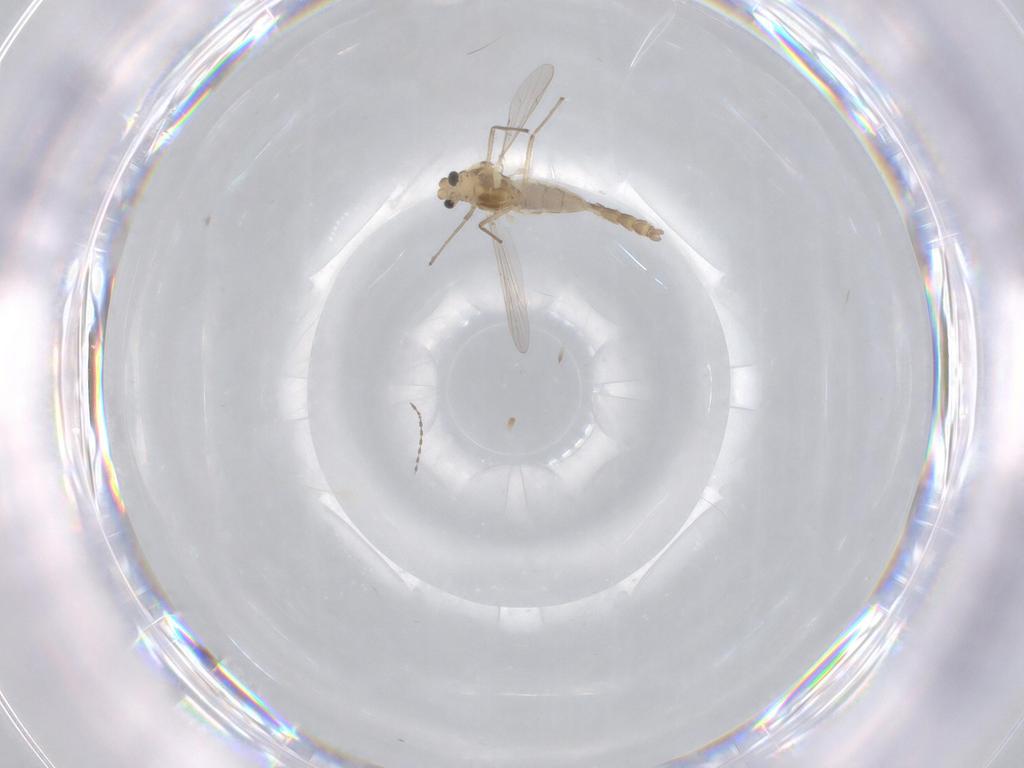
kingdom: Animalia
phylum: Arthropoda
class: Insecta
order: Diptera
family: Chironomidae
